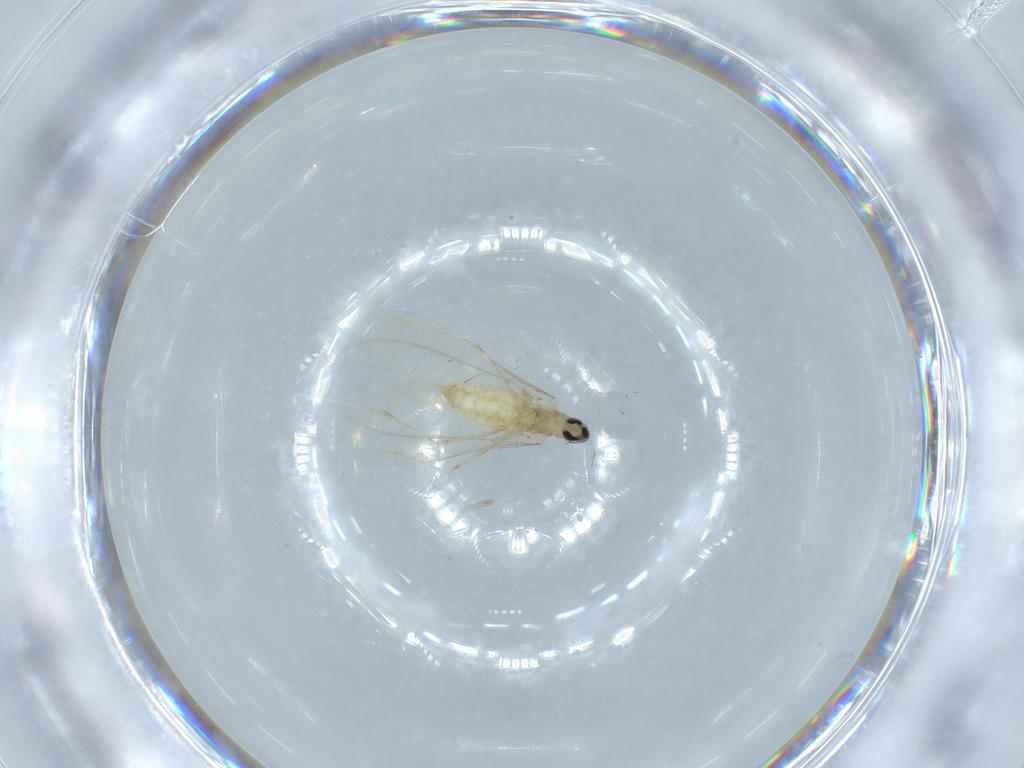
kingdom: Animalia
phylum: Arthropoda
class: Insecta
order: Diptera
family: Cecidomyiidae
